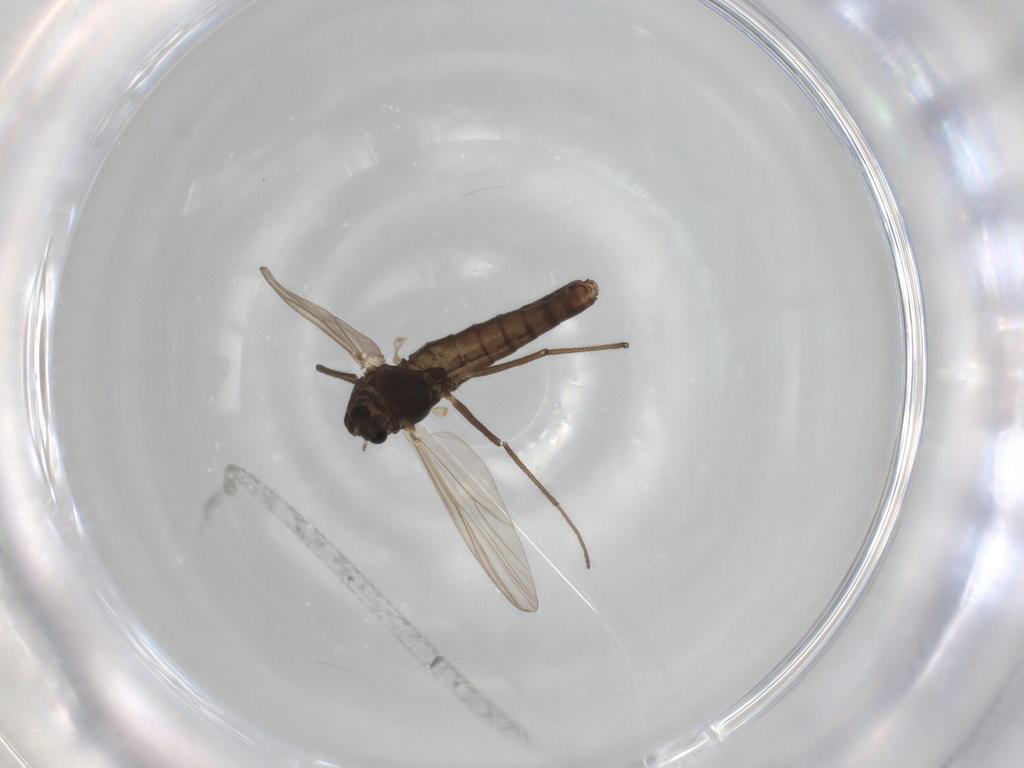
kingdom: Animalia
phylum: Arthropoda
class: Insecta
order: Diptera
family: Chironomidae
